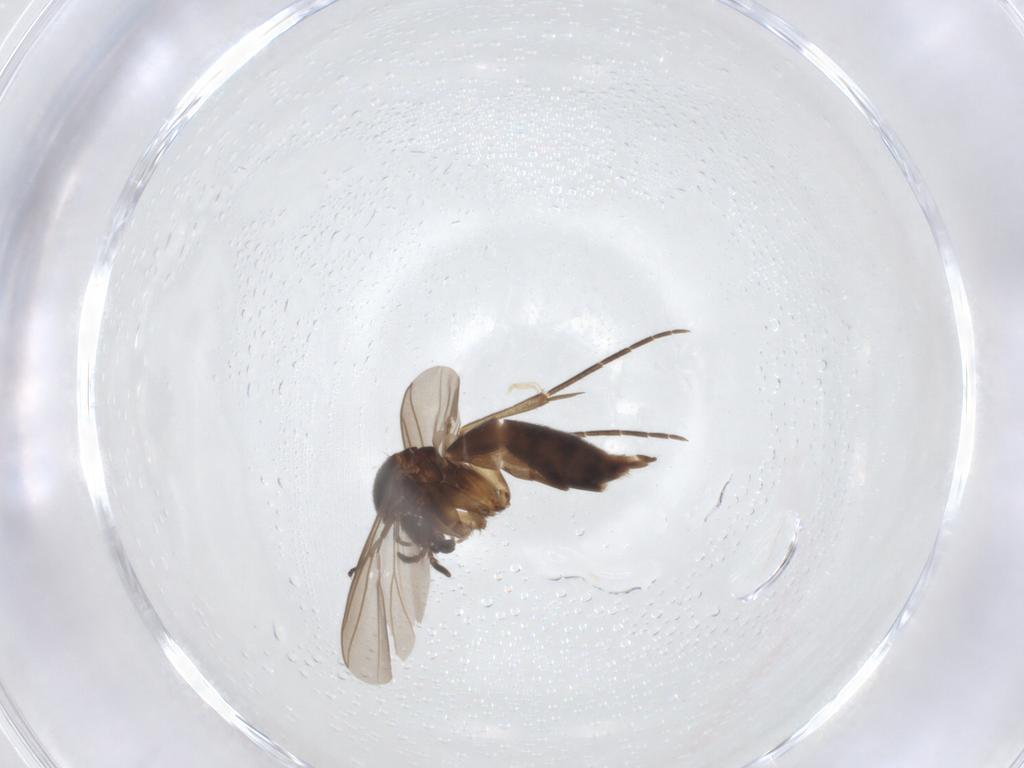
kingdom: Animalia
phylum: Arthropoda
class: Insecta
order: Diptera
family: Mycetophilidae
